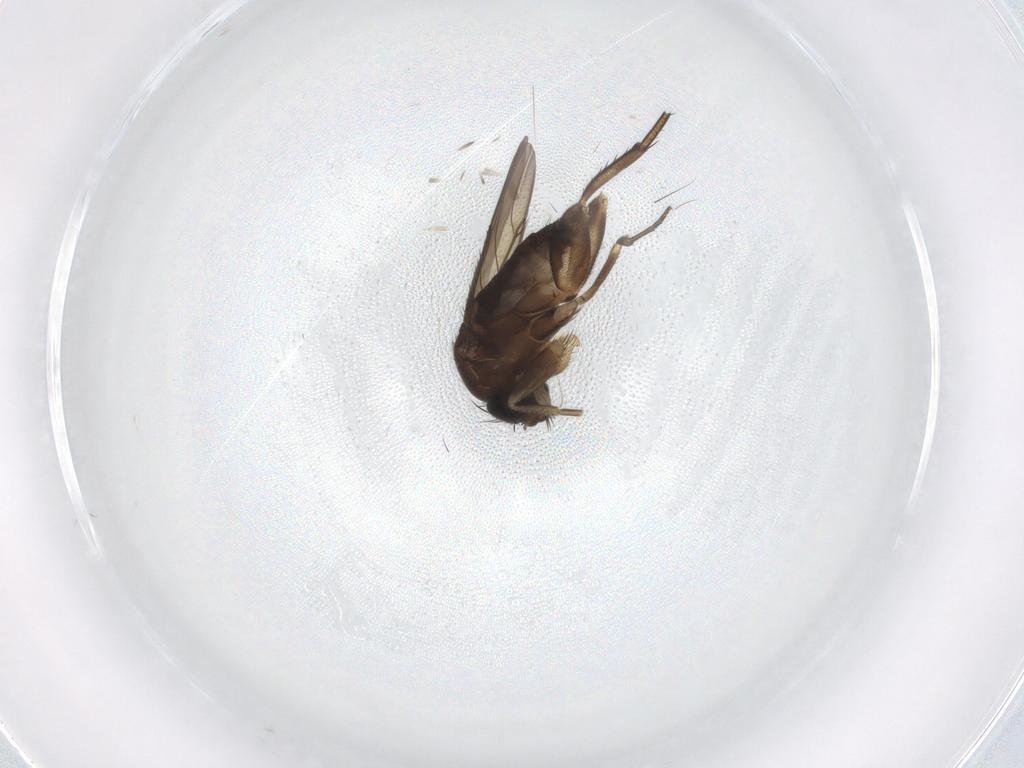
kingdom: Animalia
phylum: Arthropoda
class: Insecta
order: Diptera
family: Phoridae
